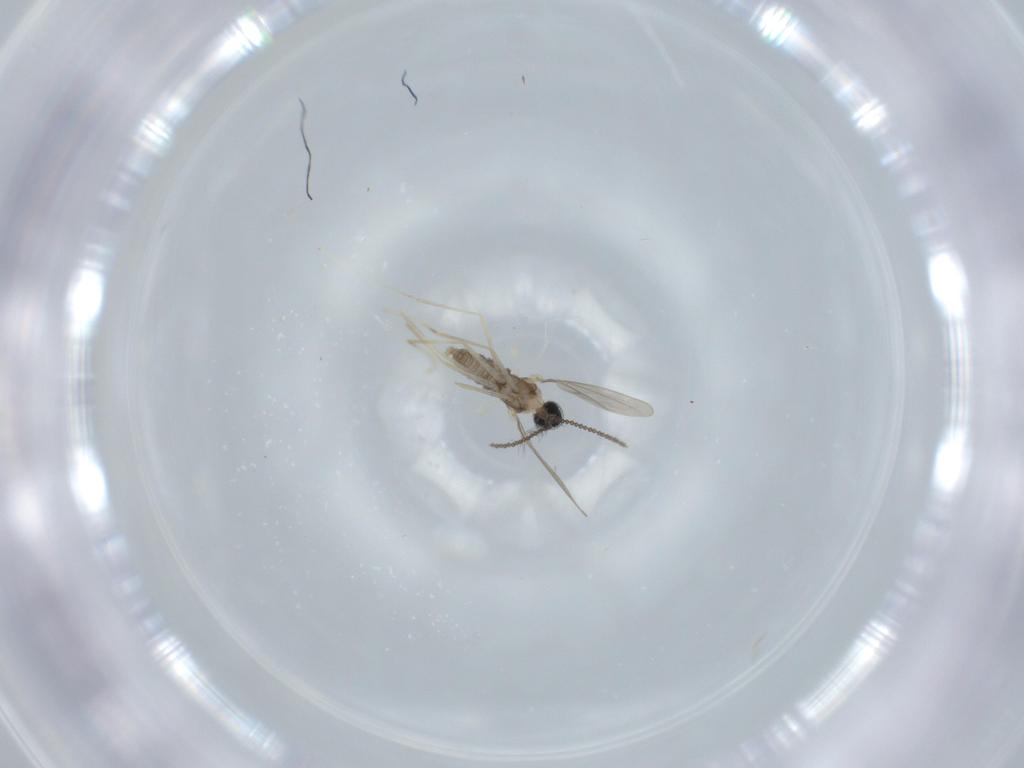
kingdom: Animalia
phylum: Arthropoda
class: Insecta
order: Diptera
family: Cecidomyiidae
